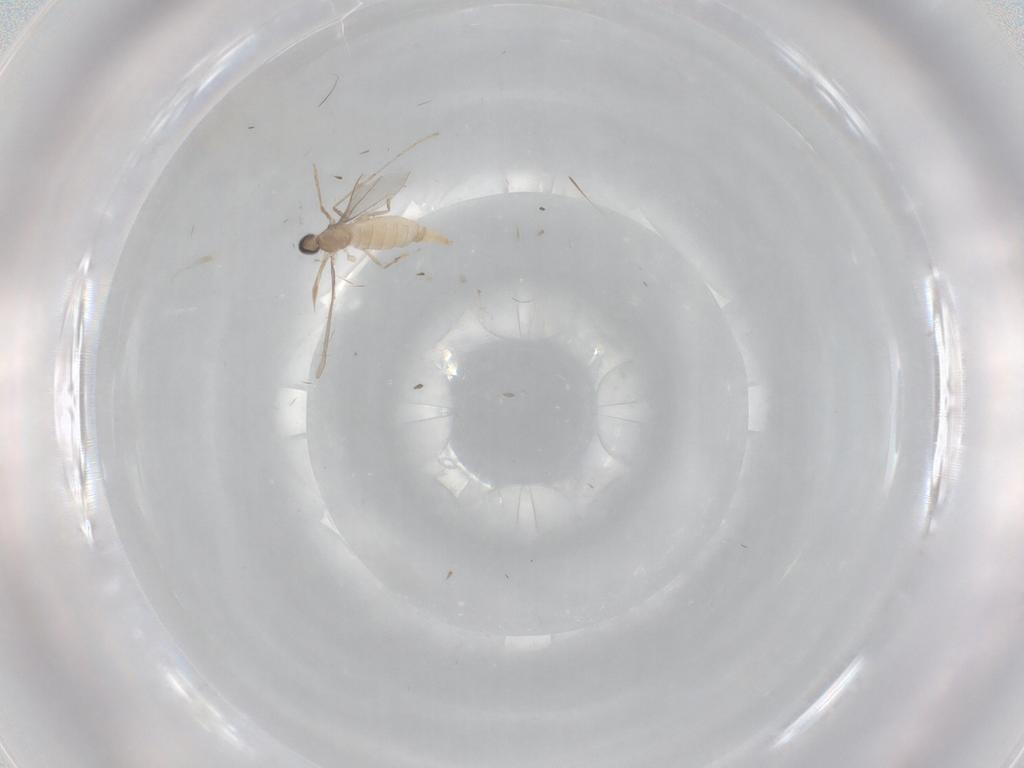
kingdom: Animalia
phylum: Arthropoda
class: Insecta
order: Diptera
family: Cecidomyiidae
